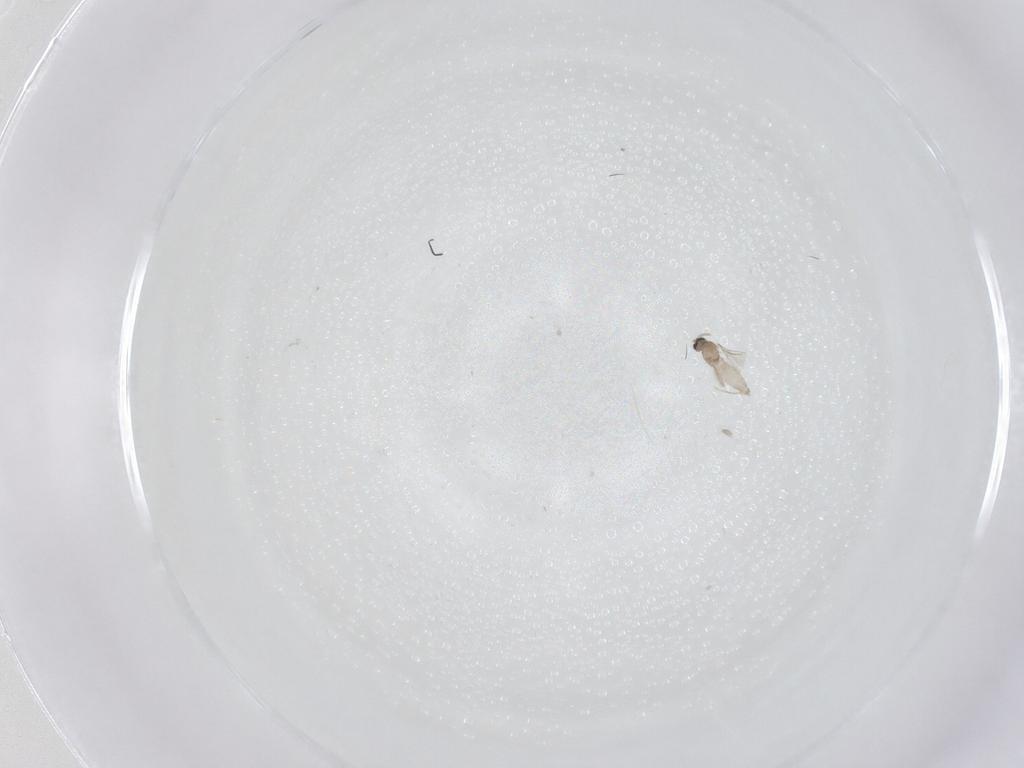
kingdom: Animalia
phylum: Arthropoda
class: Insecta
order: Diptera
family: Tabanidae
